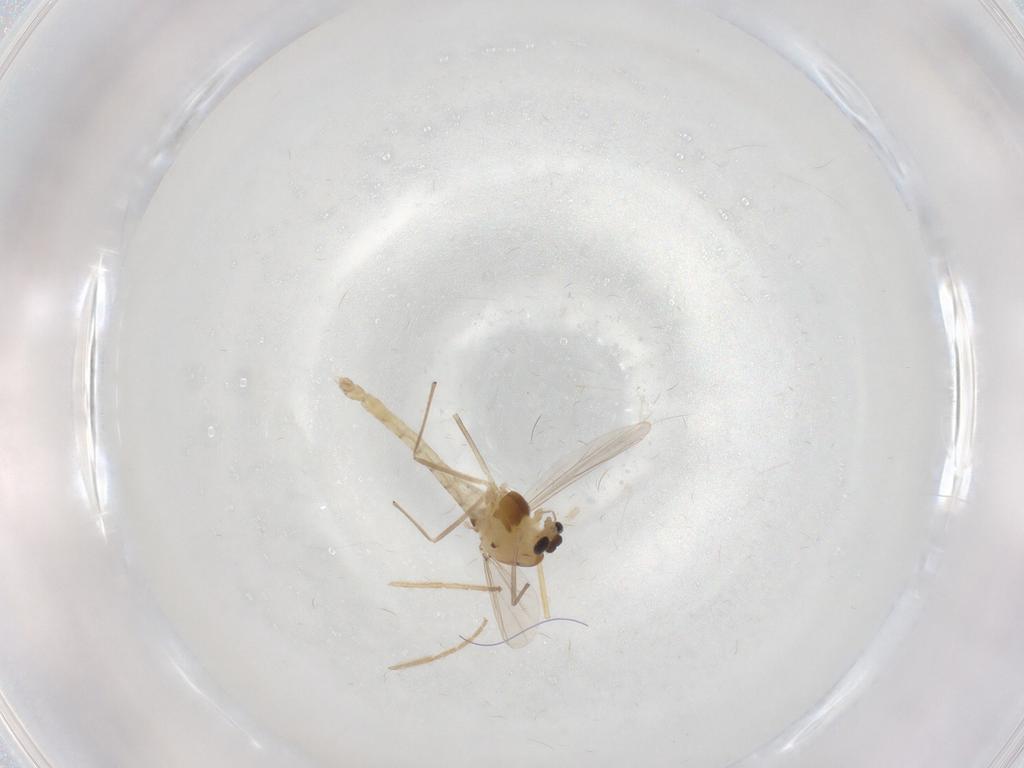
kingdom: Animalia
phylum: Arthropoda
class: Insecta
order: Diptera
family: Chironomidae
